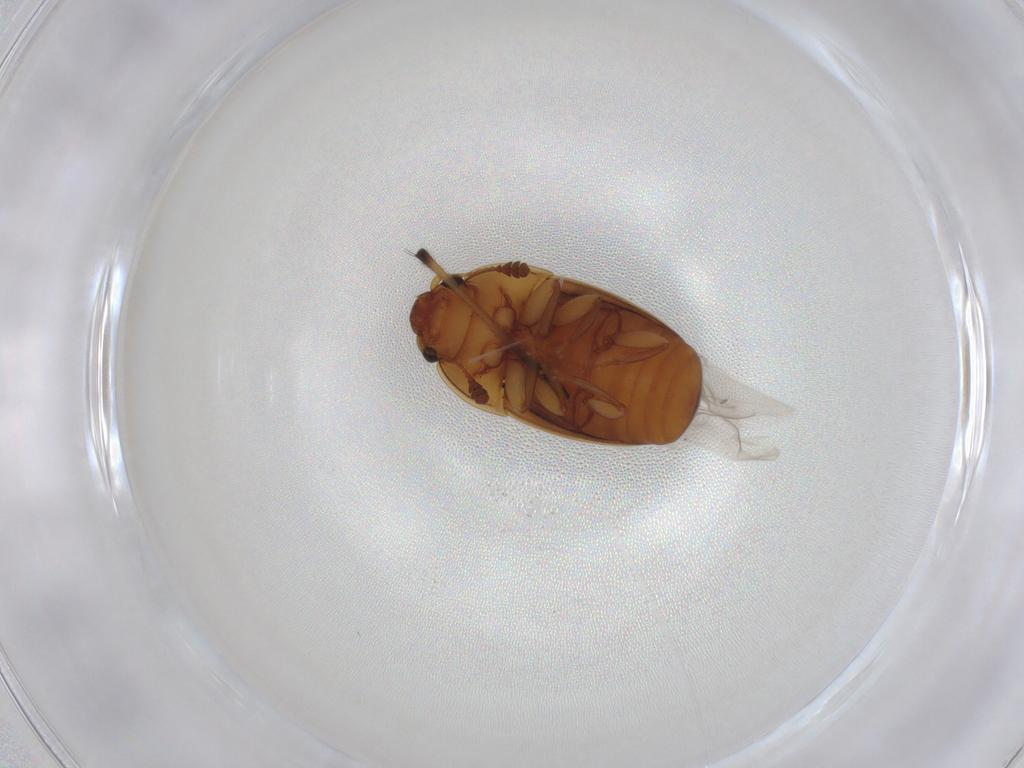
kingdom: Animalia
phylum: Arthropoda
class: Insecta
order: Coleoptera
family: Nitidulidae
